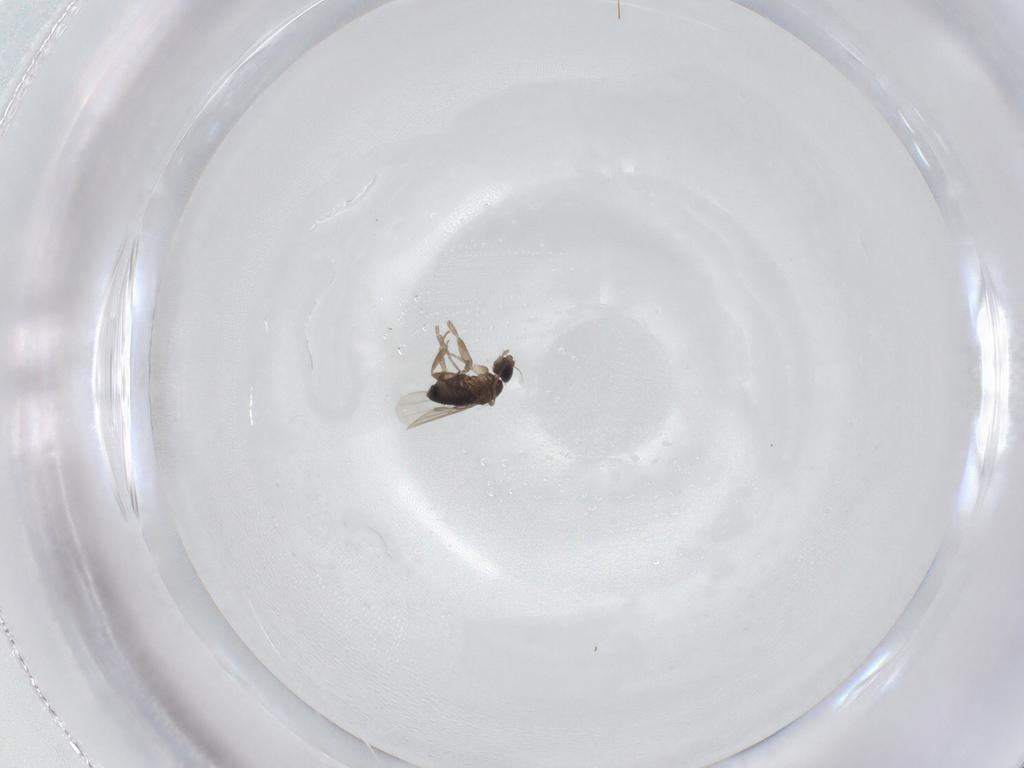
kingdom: Animalia
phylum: Arthropoda
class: Insecta
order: Diptera
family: Phoridae
